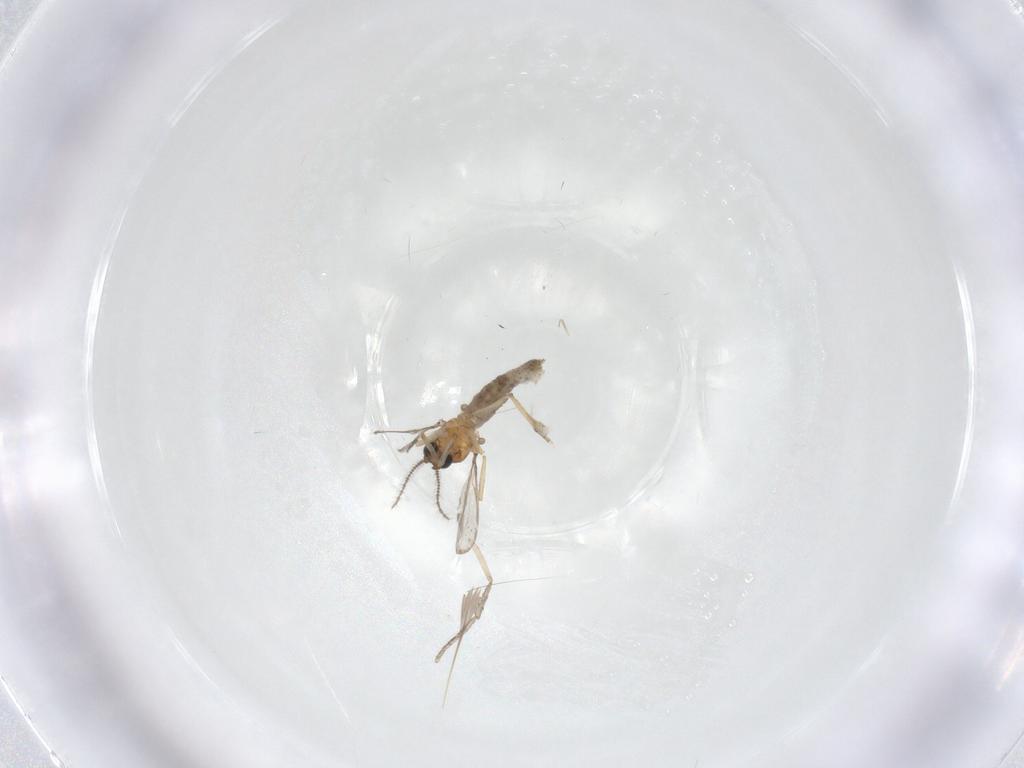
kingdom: Animalia
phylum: Arthropoda
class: Insecta
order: Diptera
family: Ceratopogonidae
